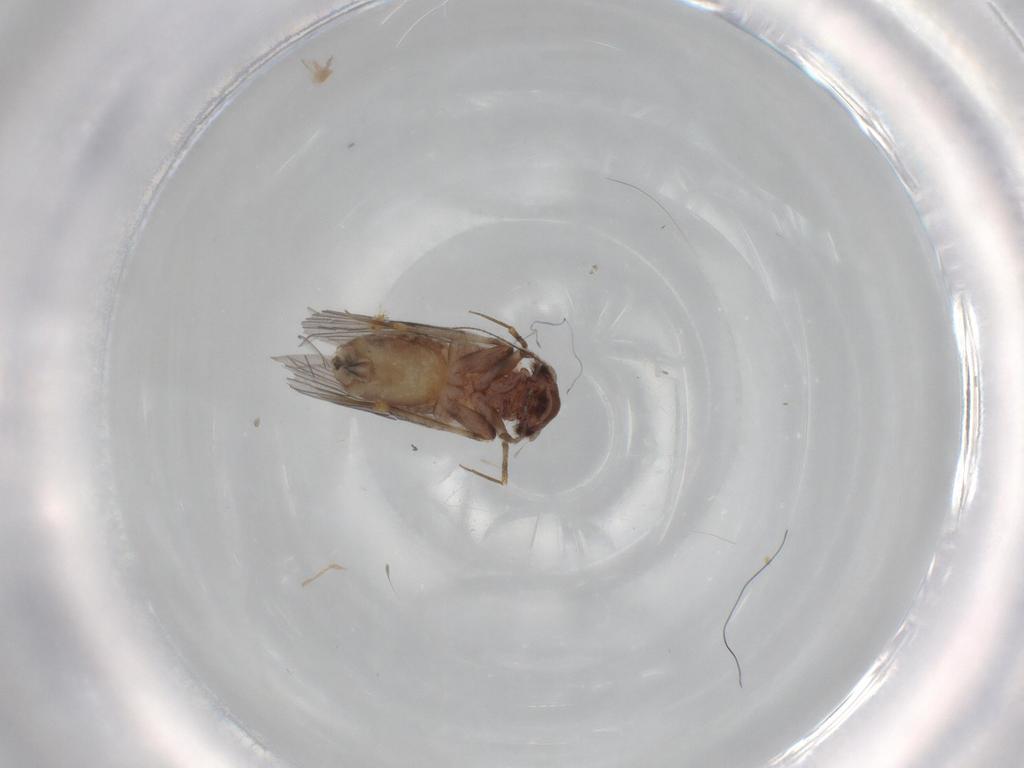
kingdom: Animalia
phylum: Arthropoda
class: Insecta
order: Psocodea
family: Lepidopsocidae
